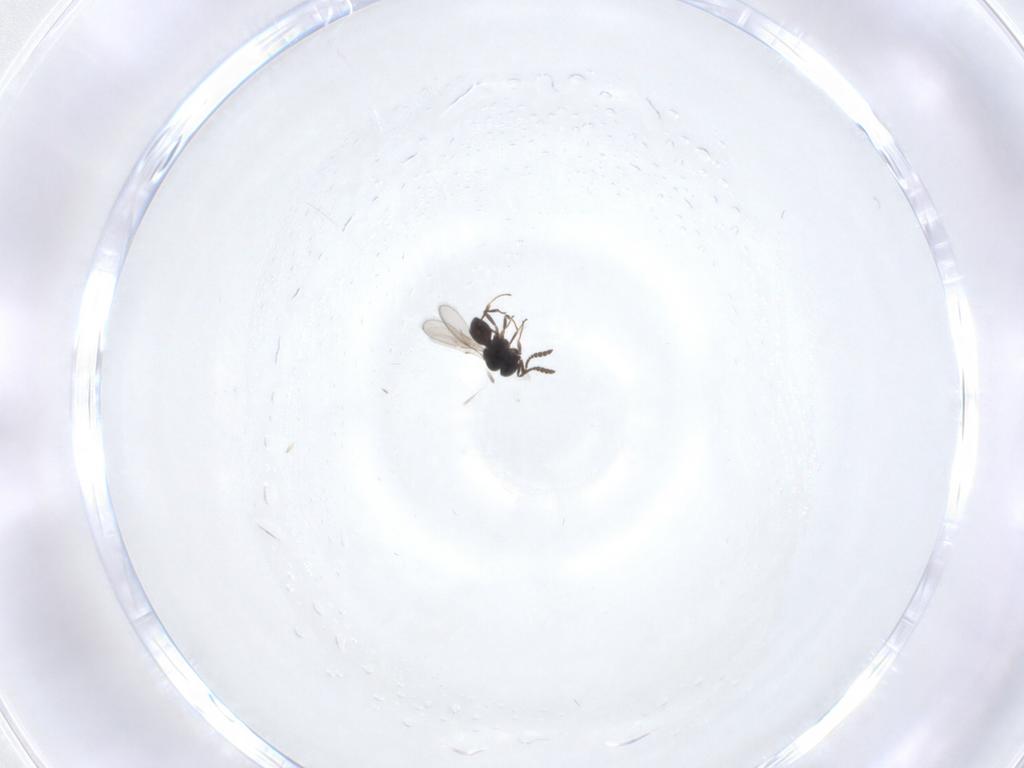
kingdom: Animalia
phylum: Arthropoda
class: Insecta
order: Hymenoptera
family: Scelionidae
